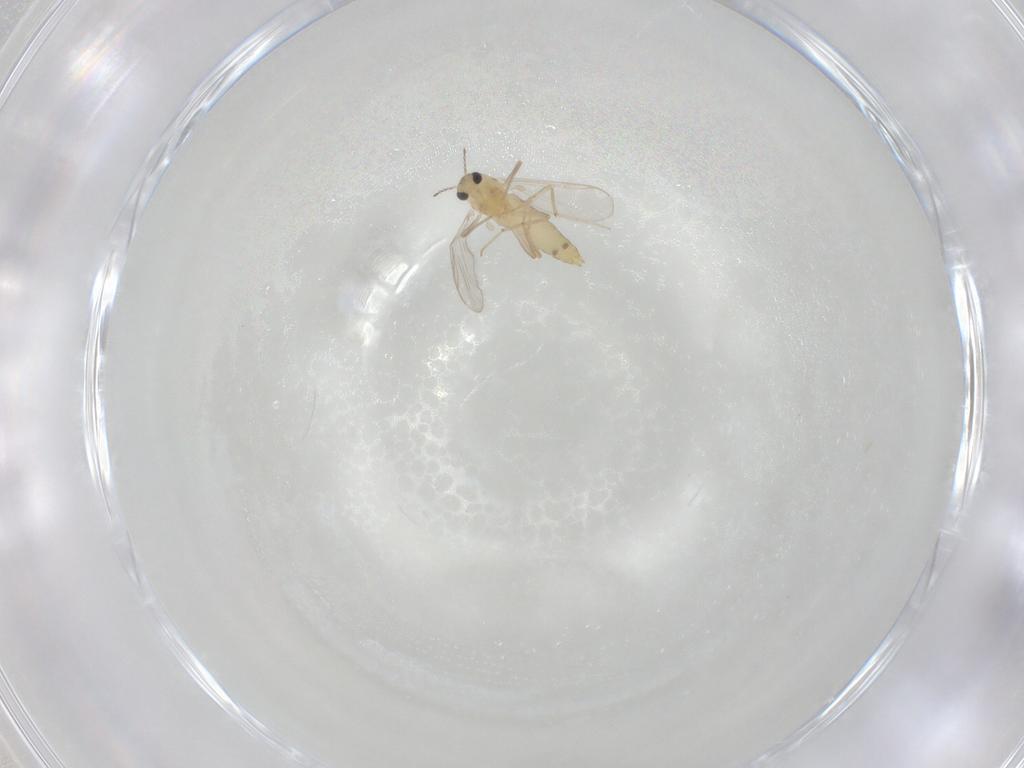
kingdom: Animalia
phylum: Arthropoda
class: Insecta
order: Diptera
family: Chironomidae
